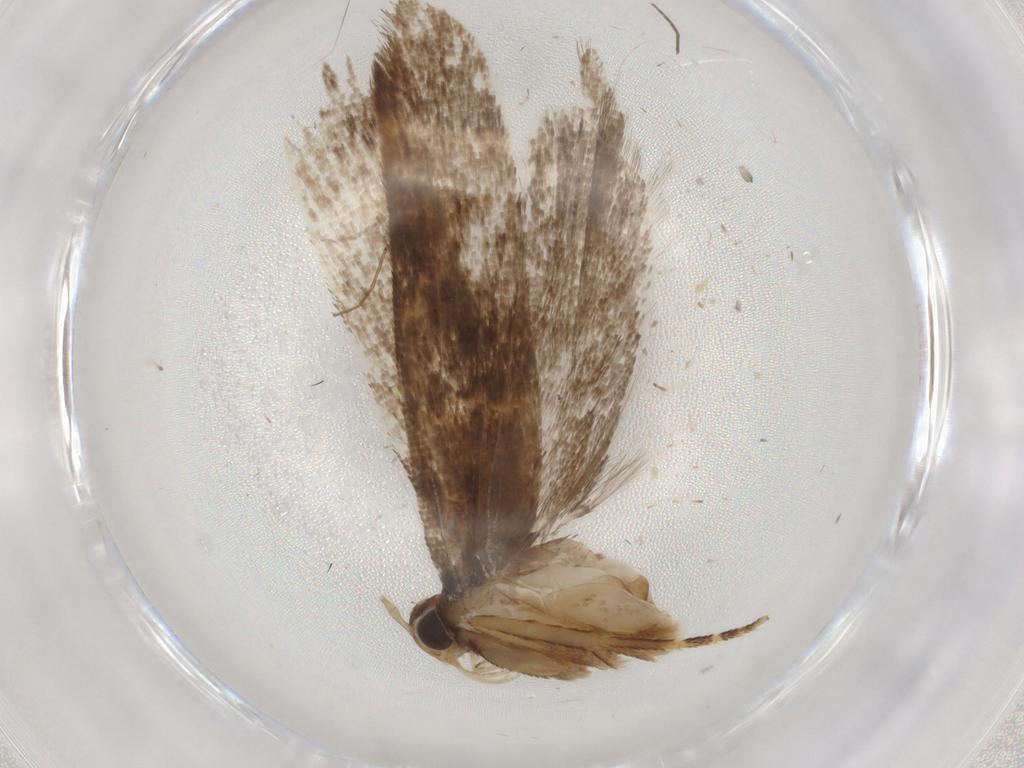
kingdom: Animalia
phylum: Arthropoda
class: Insecta
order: Lepidoptera
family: Gelechiidae
